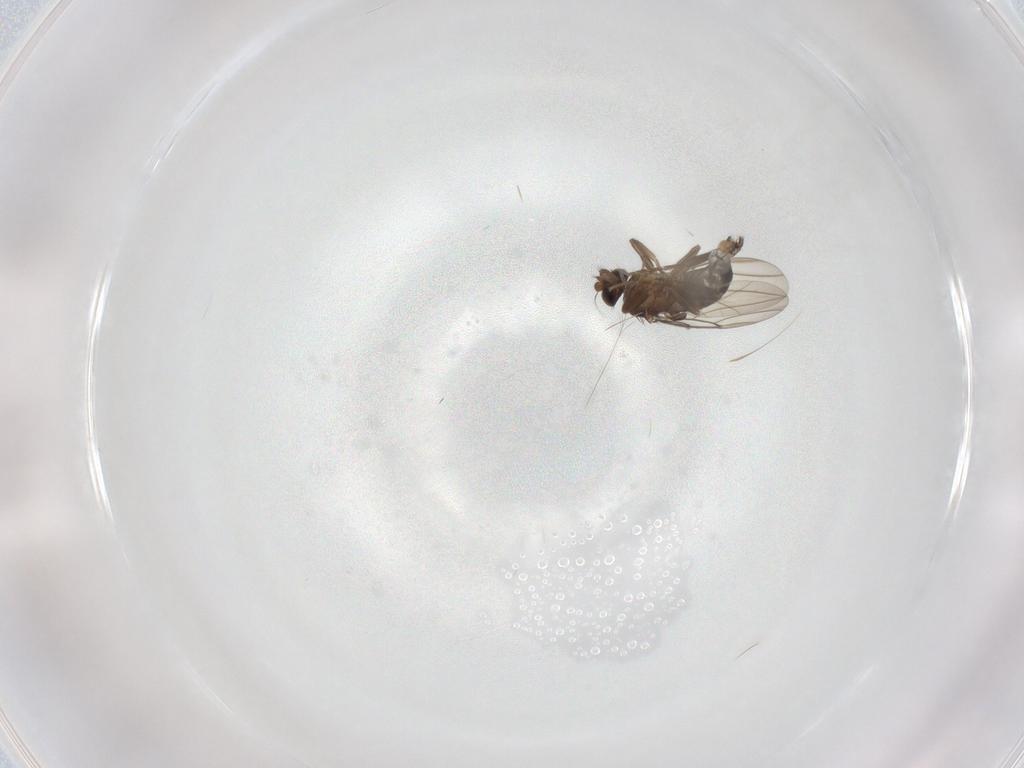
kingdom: Animalia
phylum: Arthropoda
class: Insecta
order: Diptera
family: Phoridae
